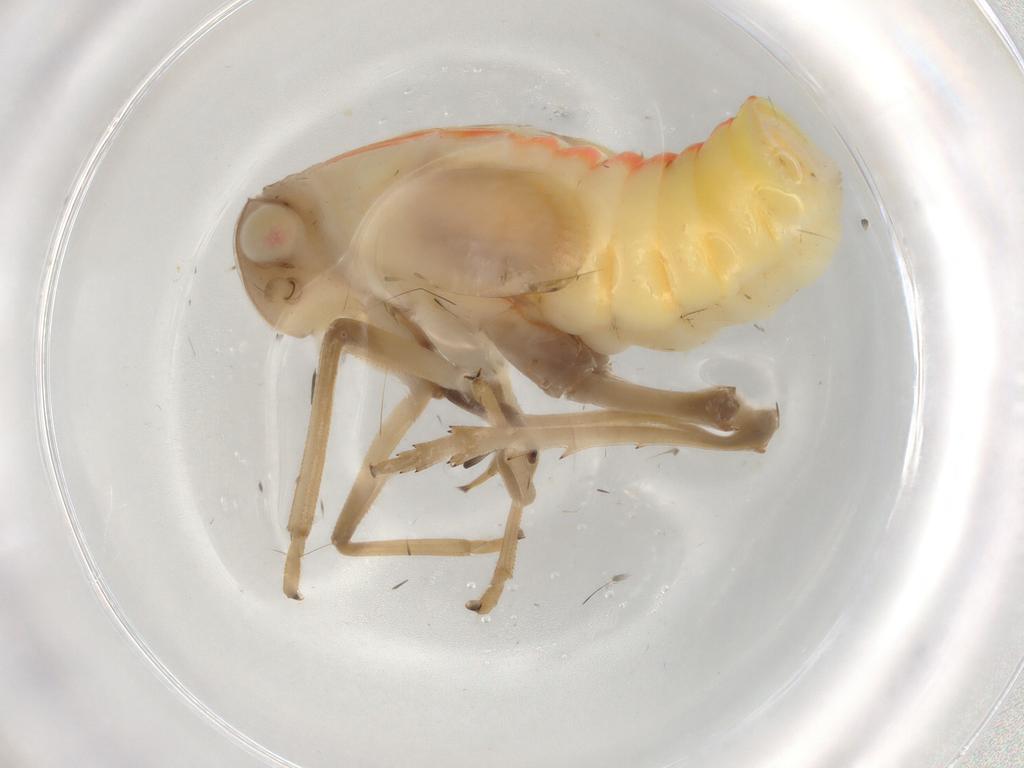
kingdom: Animalia
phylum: Arthropoda
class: Insecta
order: Hemiptera
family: Tropiduchidae
